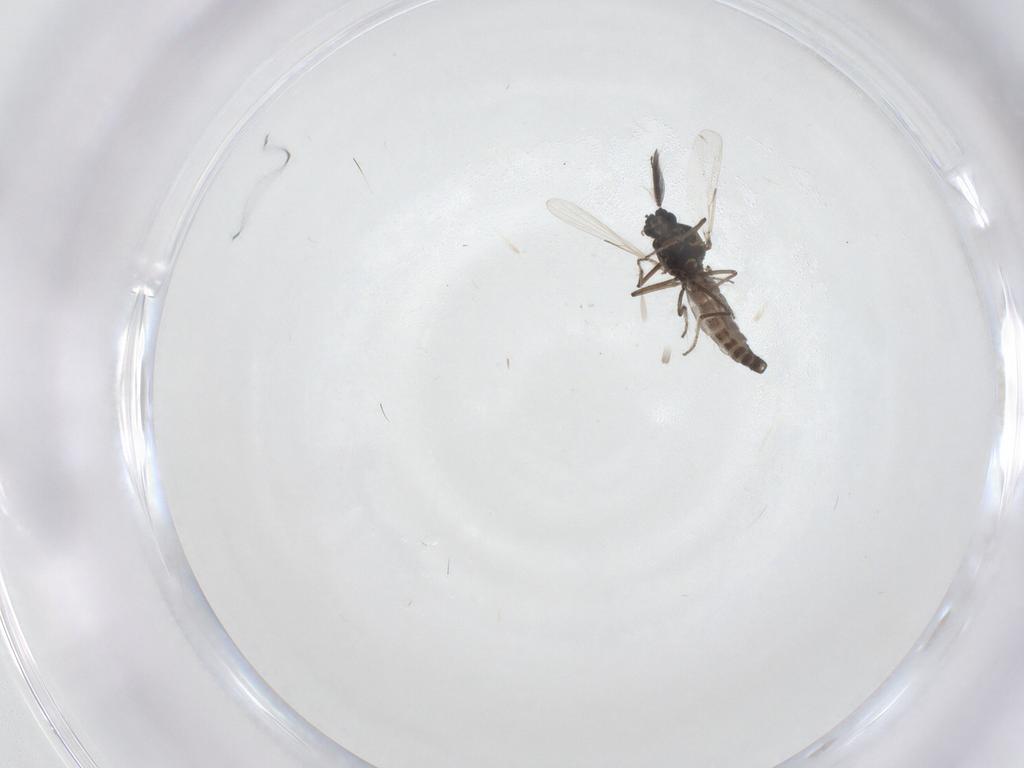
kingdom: Animalia
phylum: Arthropoda
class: Insecta
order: Diptera
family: Ceratopogonidae
